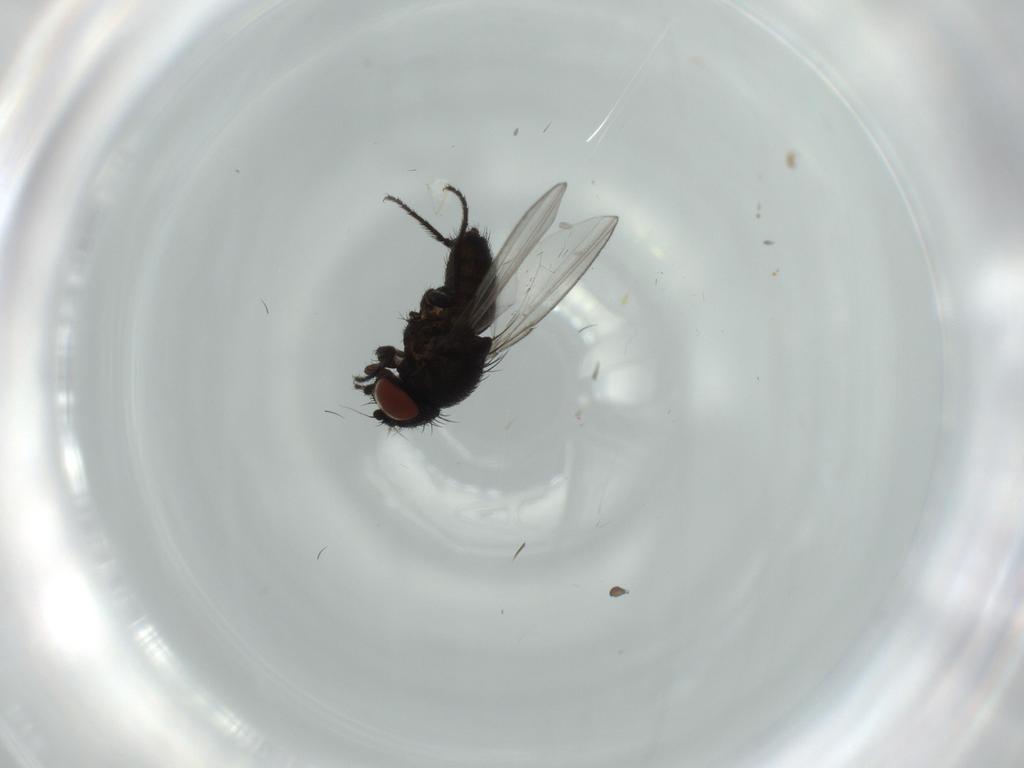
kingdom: Animalia
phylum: Arthropoda
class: Insecta
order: Diptera
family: Milichiidae
